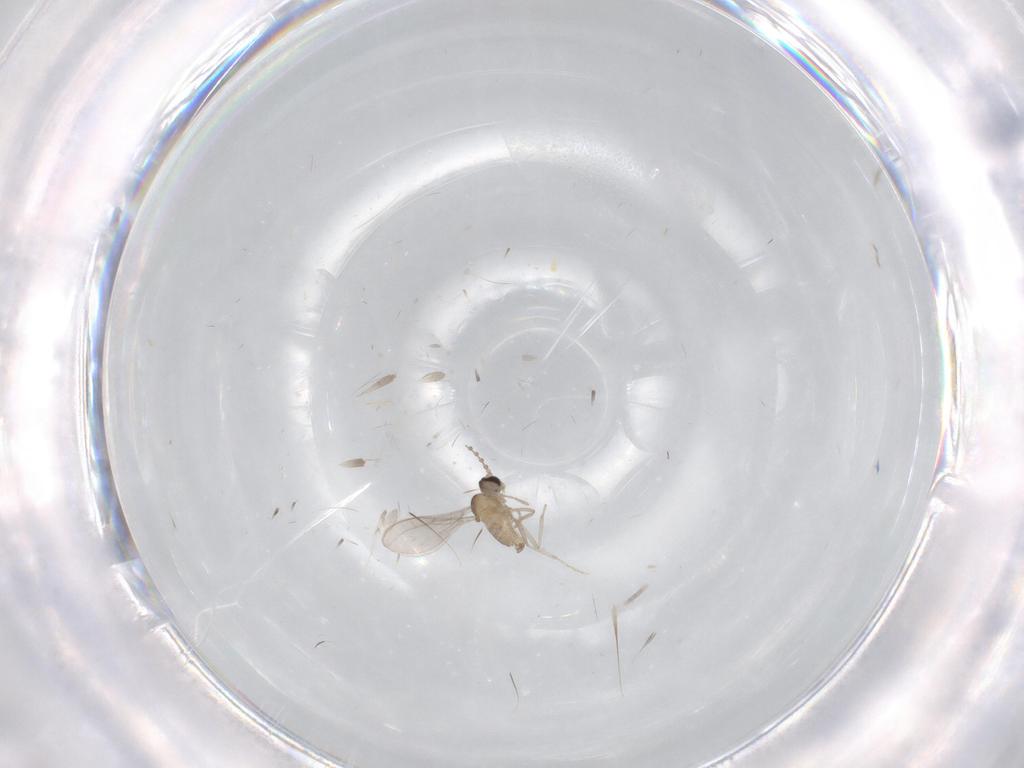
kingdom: Animalia
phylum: Arthropoda
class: Insecta
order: Diptera
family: Cecidomyiidae
